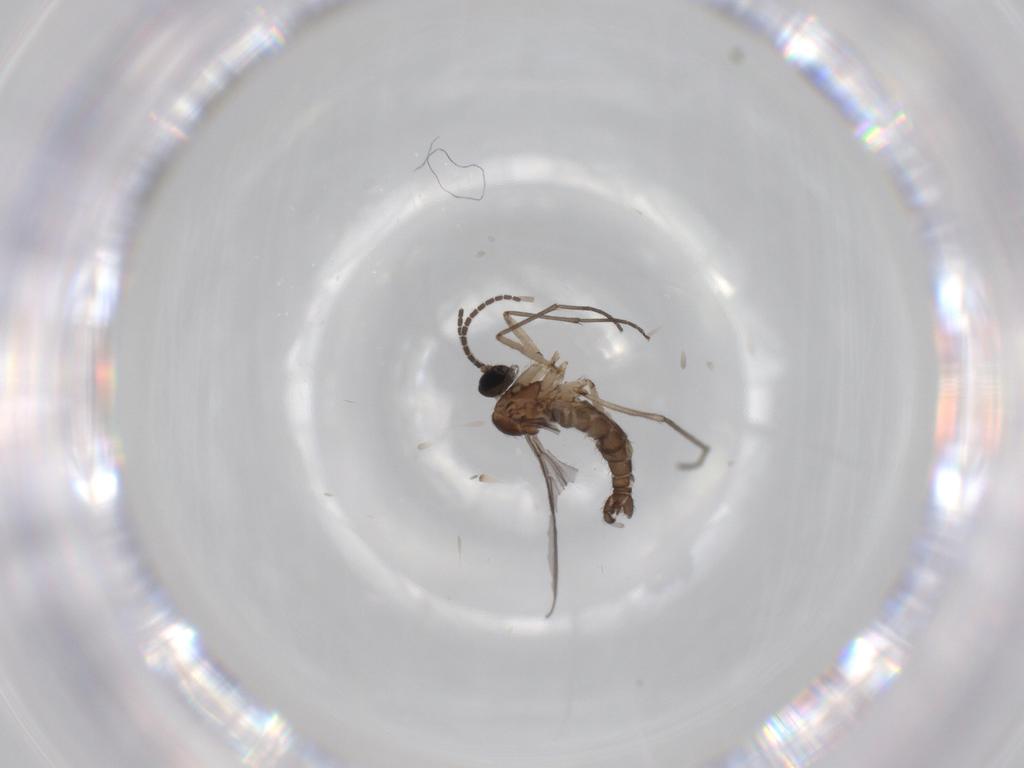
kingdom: Animalia
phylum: Arthropoda
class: Insecta
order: Diptera
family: Sciaridae
